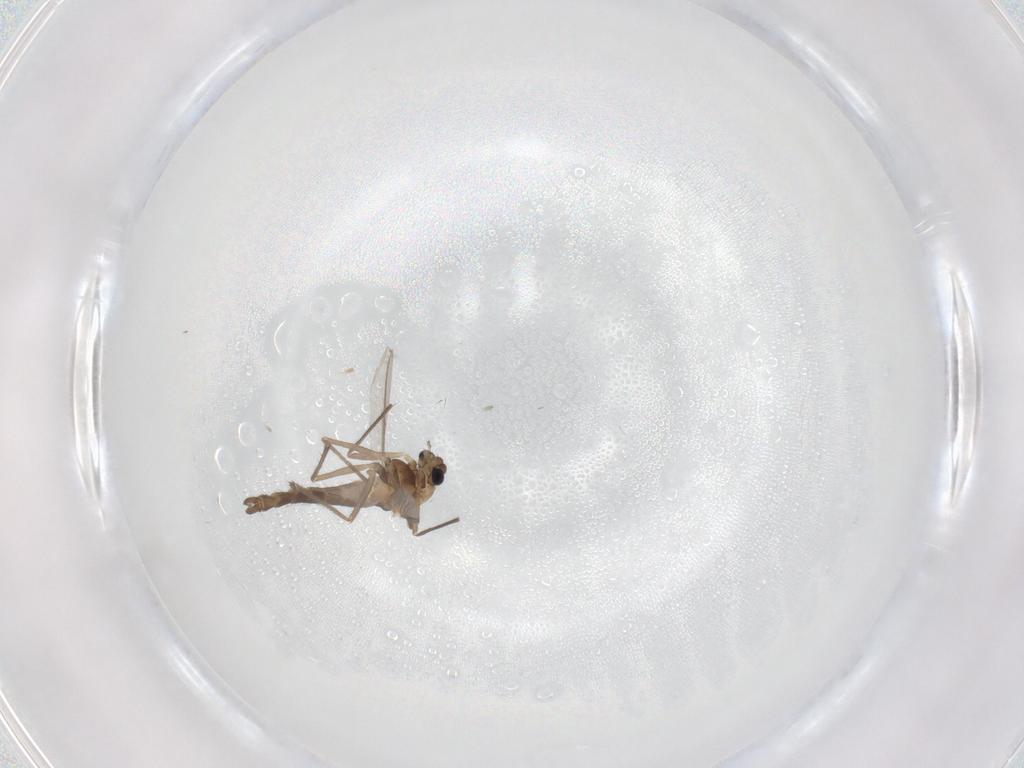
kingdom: Animalia
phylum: Arthropoda
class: Insecta
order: Diptera
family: Chironomidae
